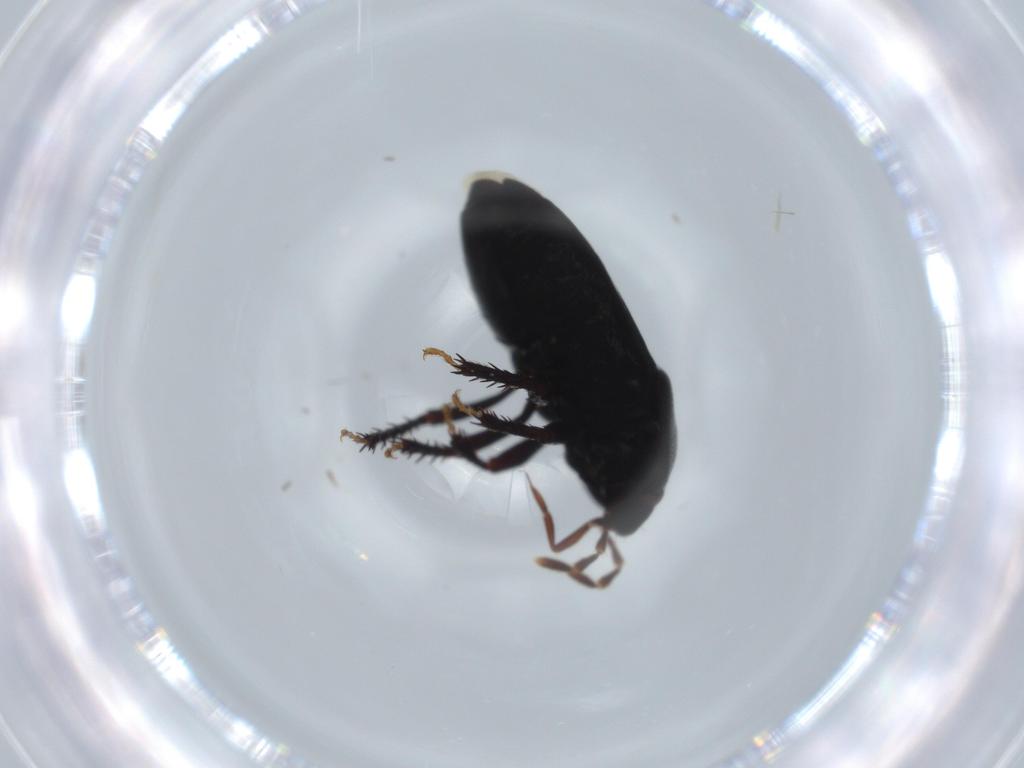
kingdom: Animalia
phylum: Arthropoda
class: Insecta
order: Hemiptera
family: Cydnidae
